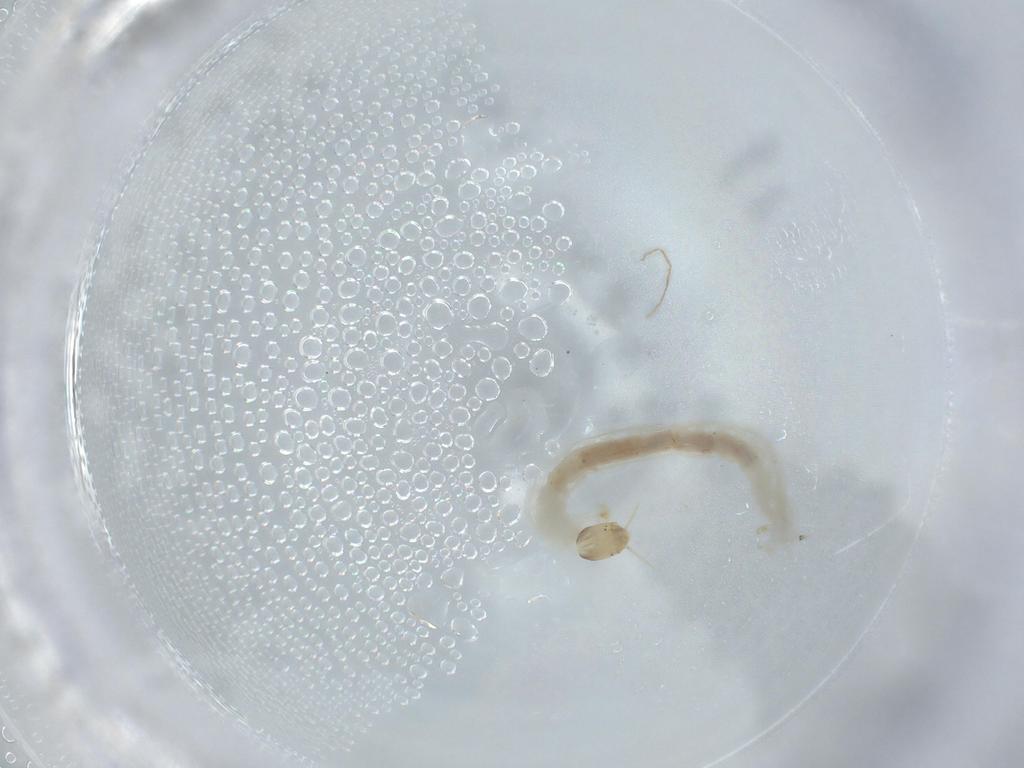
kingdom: Animalia
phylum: Arthropoda
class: Insecta
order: Diptera
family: Chironomidae
